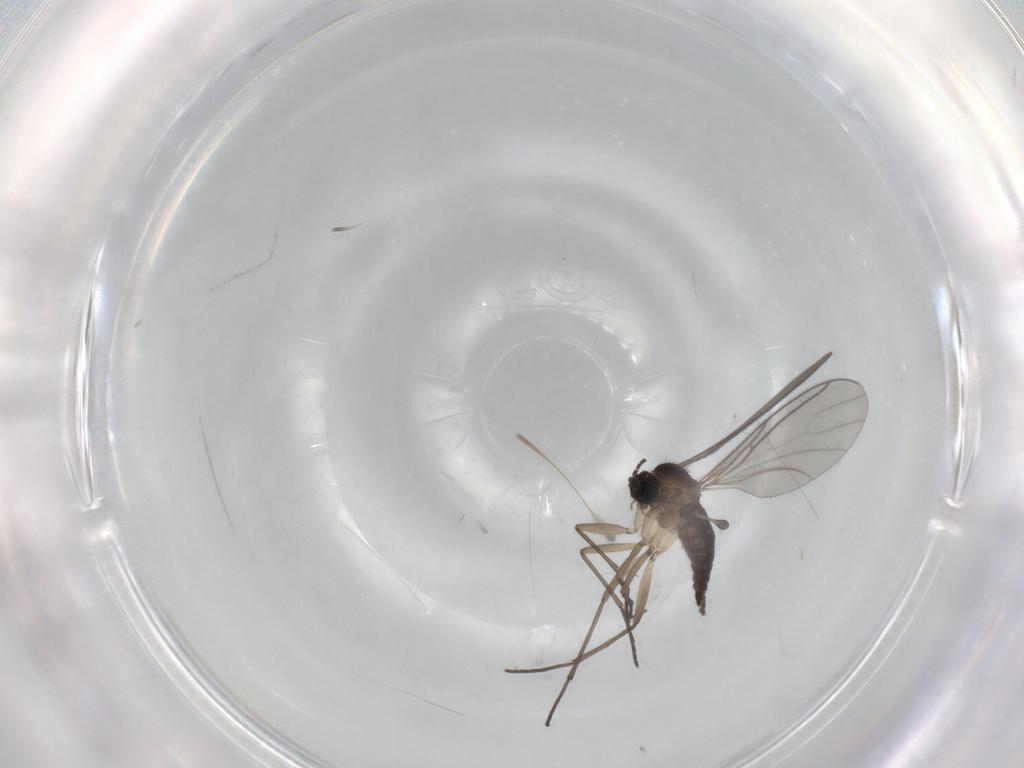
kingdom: Animalia
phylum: Arthropoda
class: Insecta
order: Diptera
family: Sciaridae
